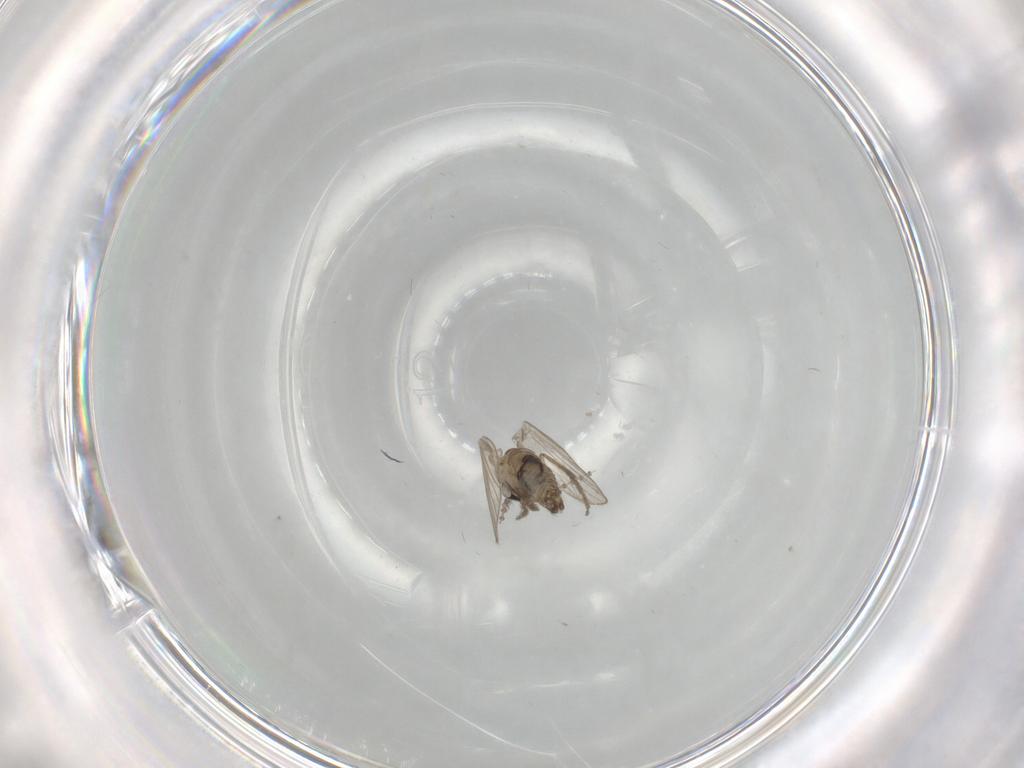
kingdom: Animalia
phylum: Arthropoda
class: Insecta
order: Diptera
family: Psychodidae
